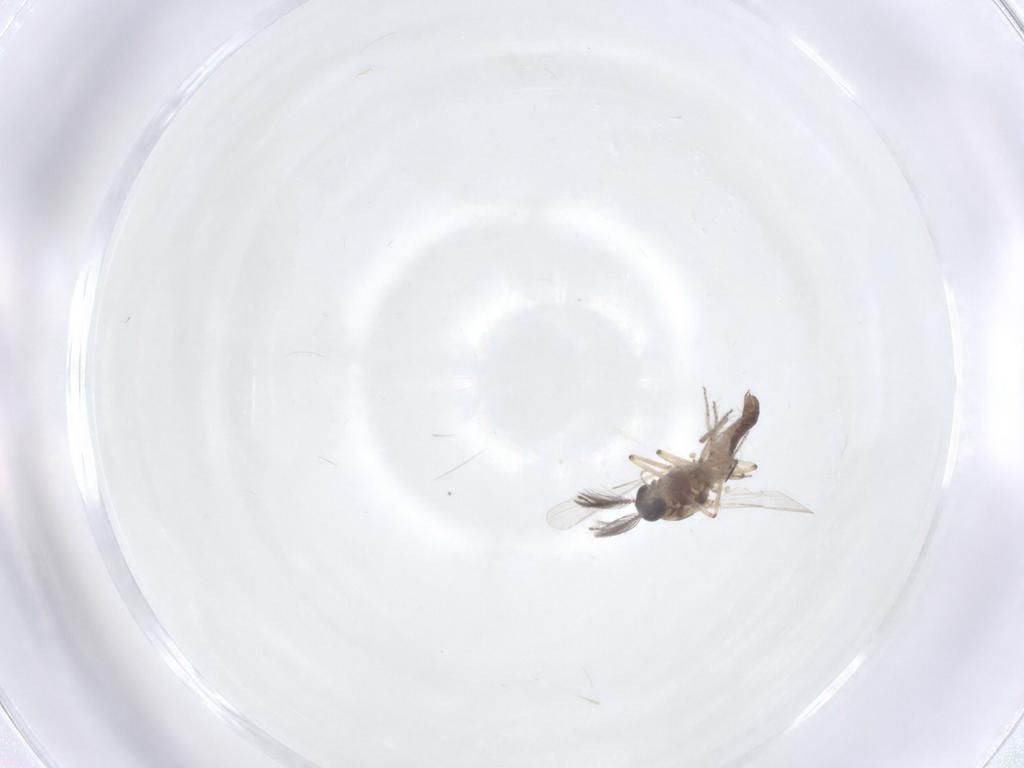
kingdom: Animalia
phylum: Arthropoda
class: Insecta
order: Diptera
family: Ceratopogonidae
